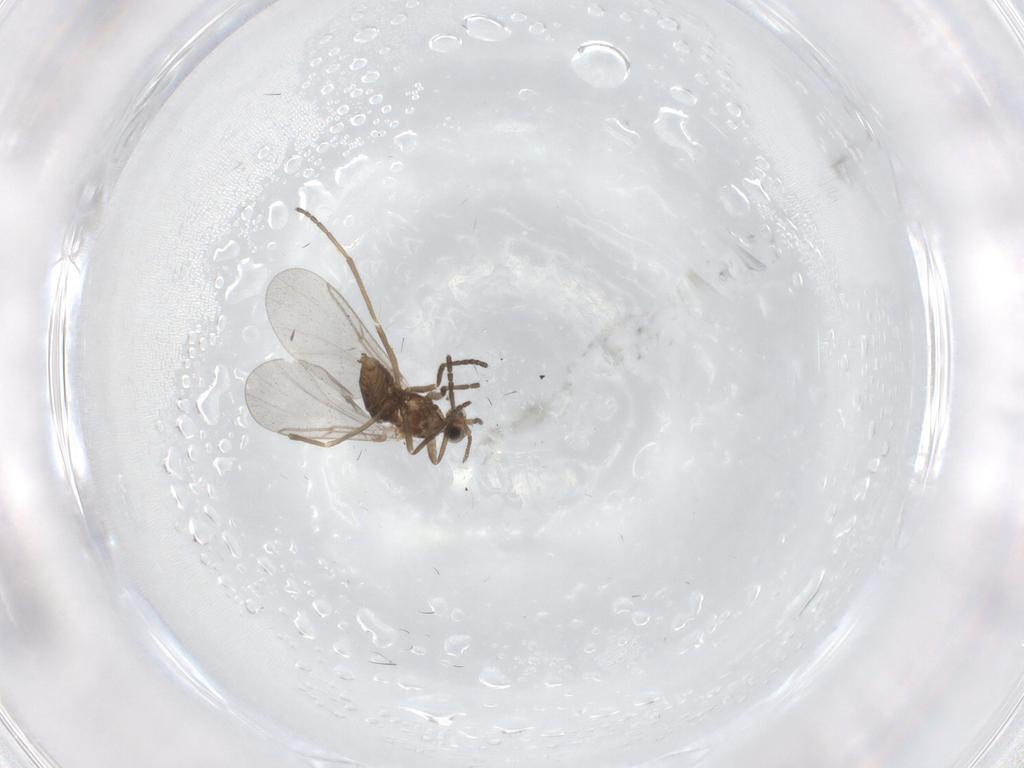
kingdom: Animalia
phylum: Arthropoda
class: Insecta
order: Diptera
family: Cecidomyiidae
